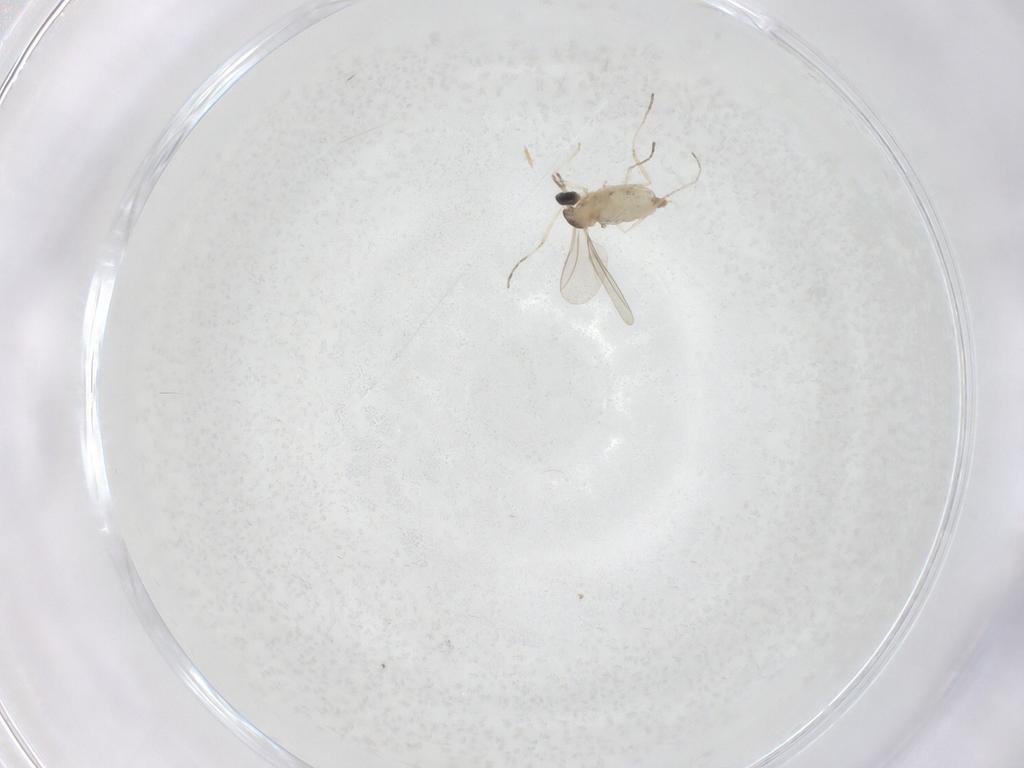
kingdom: Animalia
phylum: Arthropoda
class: Insecta
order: Diptera
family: Cecidomyiidae
